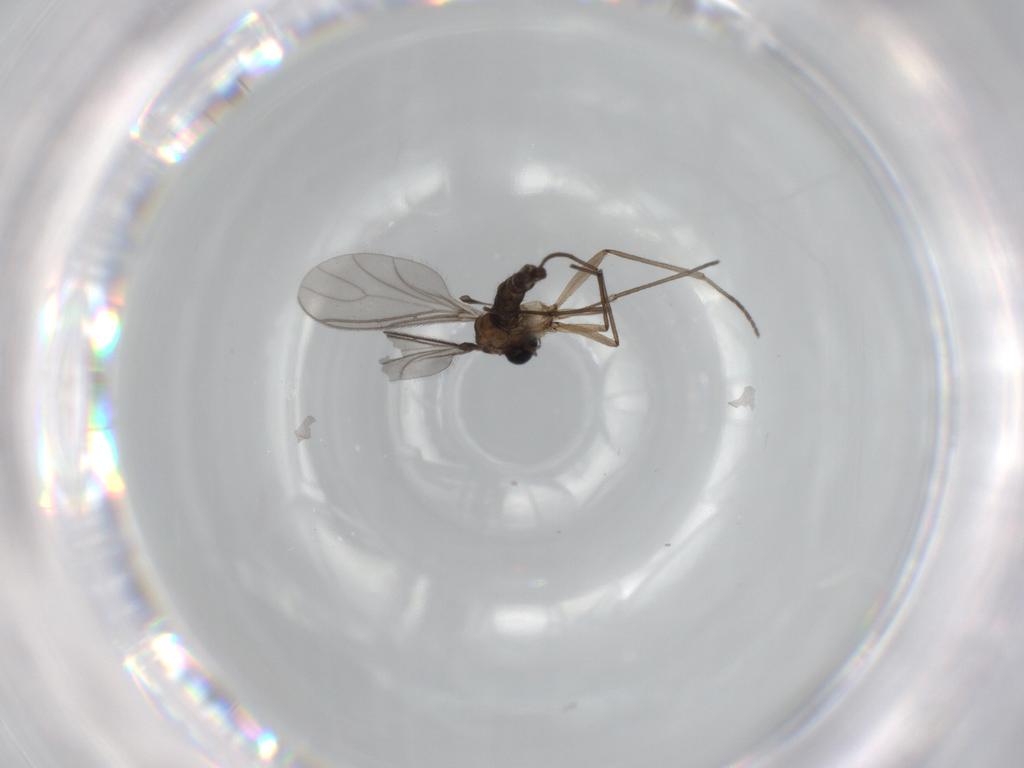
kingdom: Animalia
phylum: Arthropoda
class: Insecta
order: Diptera
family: Sciaridae
